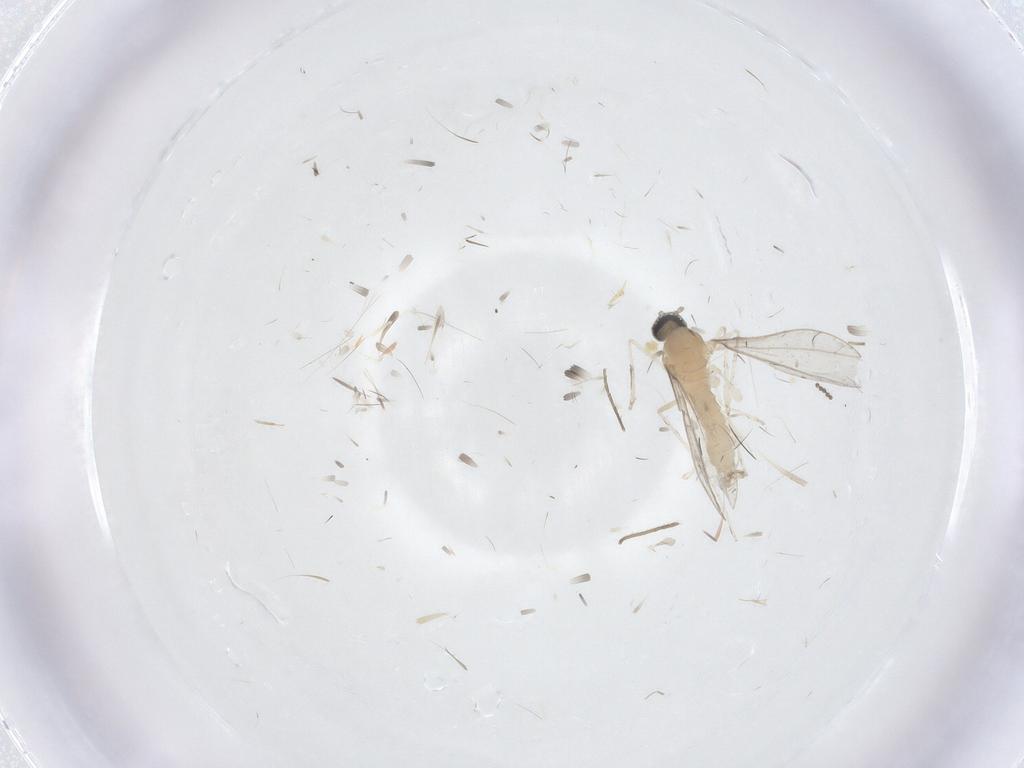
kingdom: Animalia
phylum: Arthropoda
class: Insecta
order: Diptera
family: Cecidomyiidae
